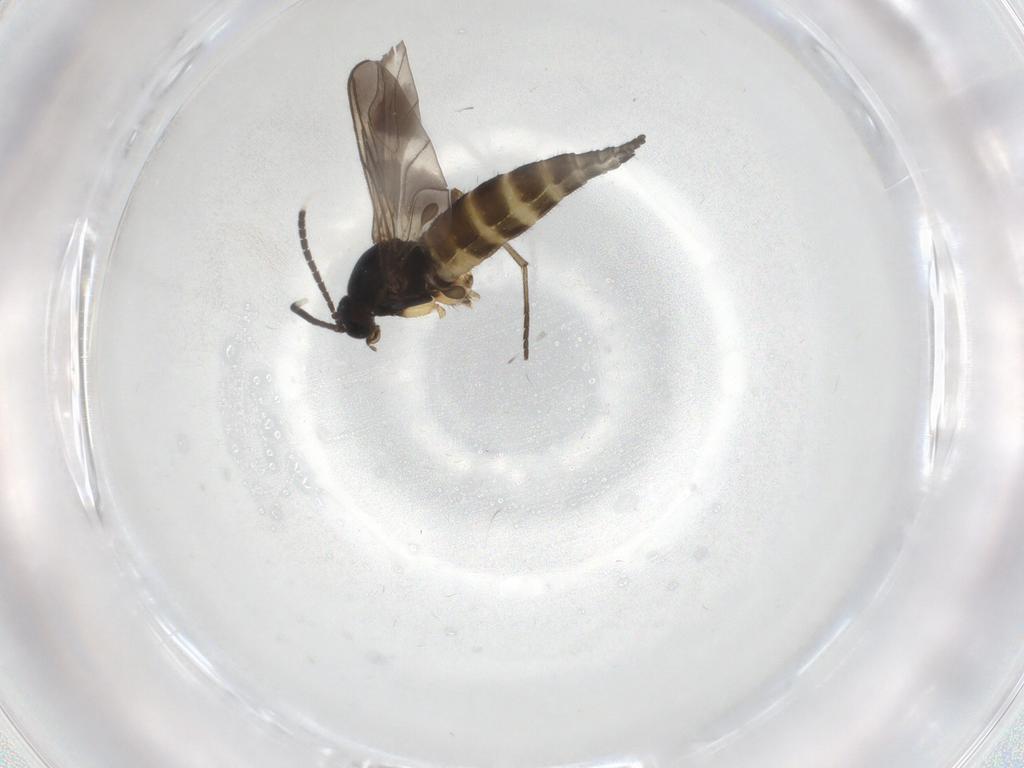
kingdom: Animalia
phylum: Arthropoda
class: Insecta
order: Diptera
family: Sciaridae
